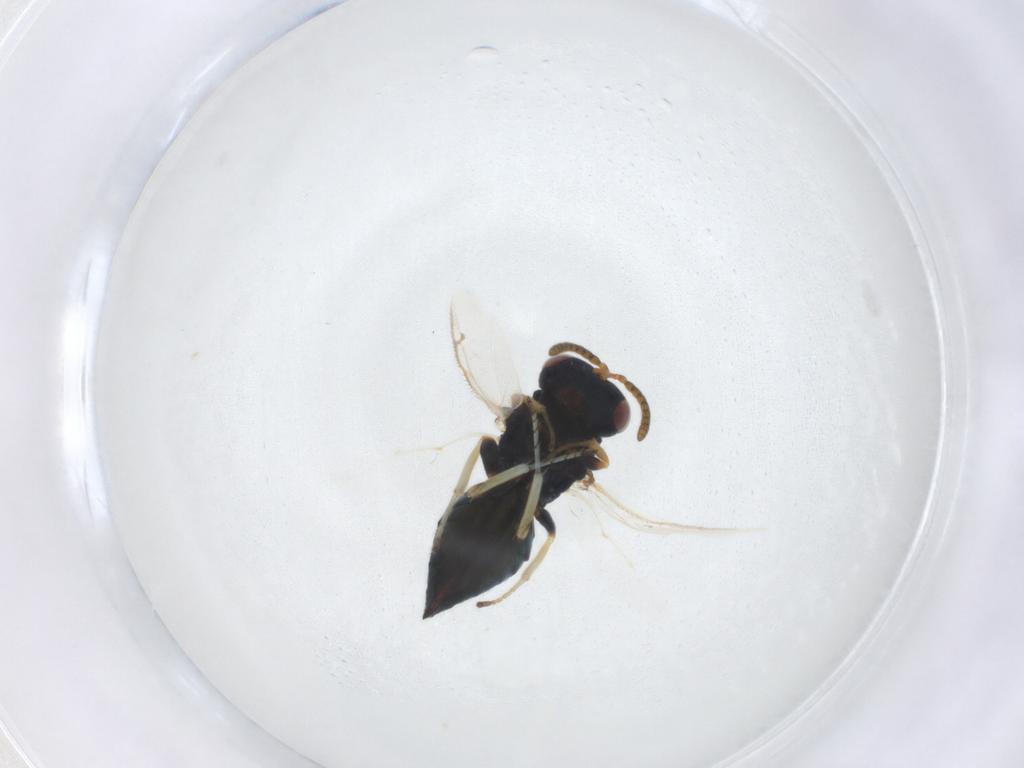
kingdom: Animalia
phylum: Arthropoda
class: Insecta
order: Hymenoptera
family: Pteromalidae
